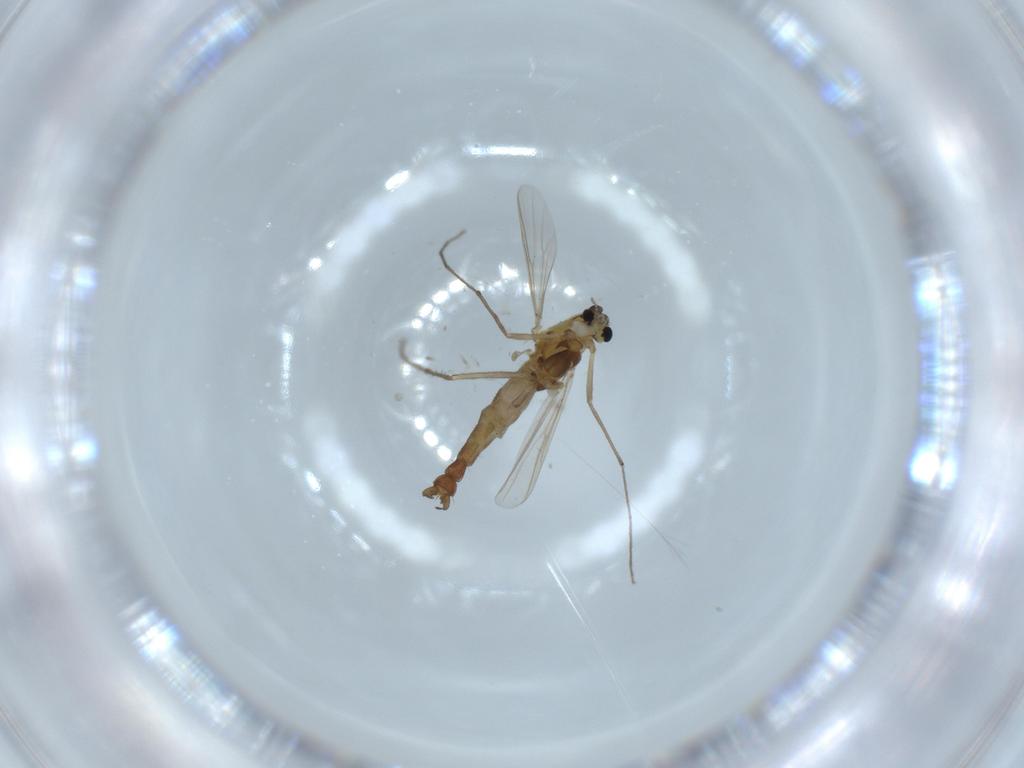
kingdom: Animalia
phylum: Arthropoda
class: Insecta
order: Diptera
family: Chironomidae
